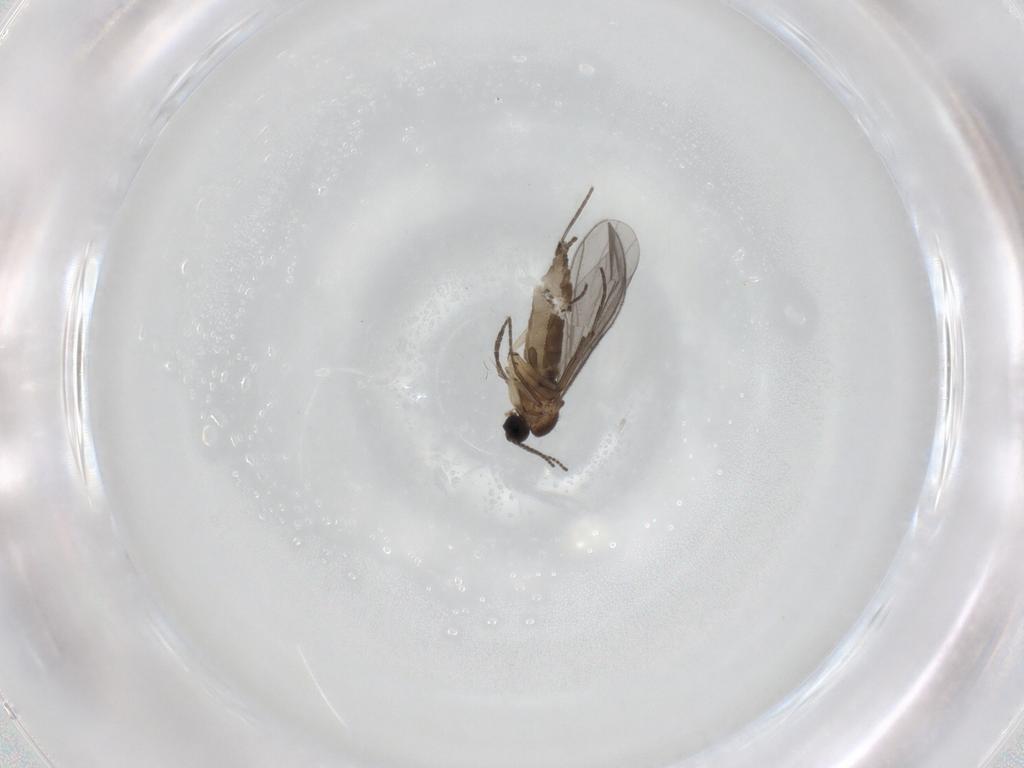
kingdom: Animalia
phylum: Arthropoda
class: Insecta
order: Diptera
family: Sciaridae
